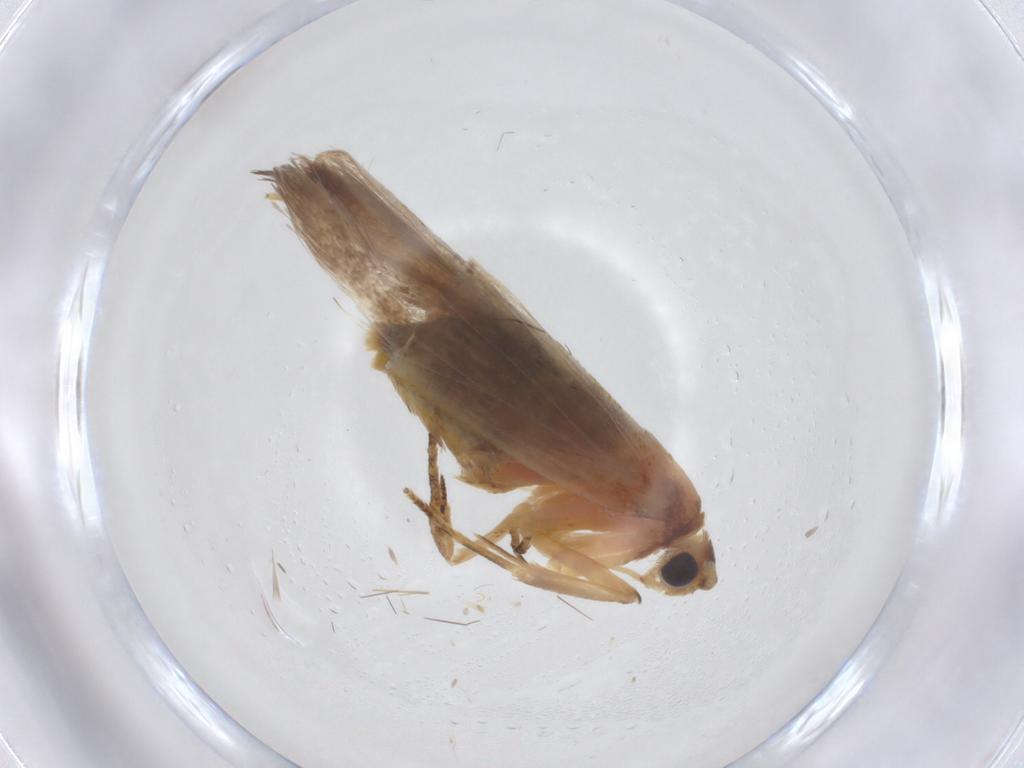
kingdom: Animalia
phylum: Arthropoda
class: Insecta
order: Lepidoptera
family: Lecithoceridae
